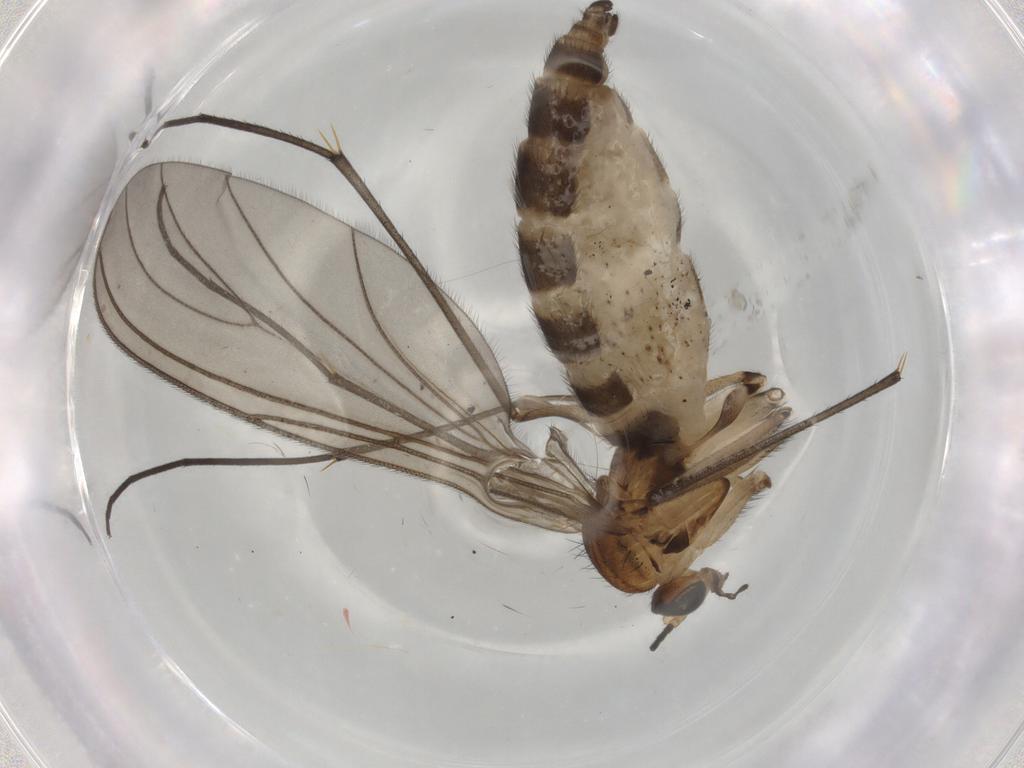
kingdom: Animalia
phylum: Arthropoda
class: Insecta
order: Diptera
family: Sciaridae
